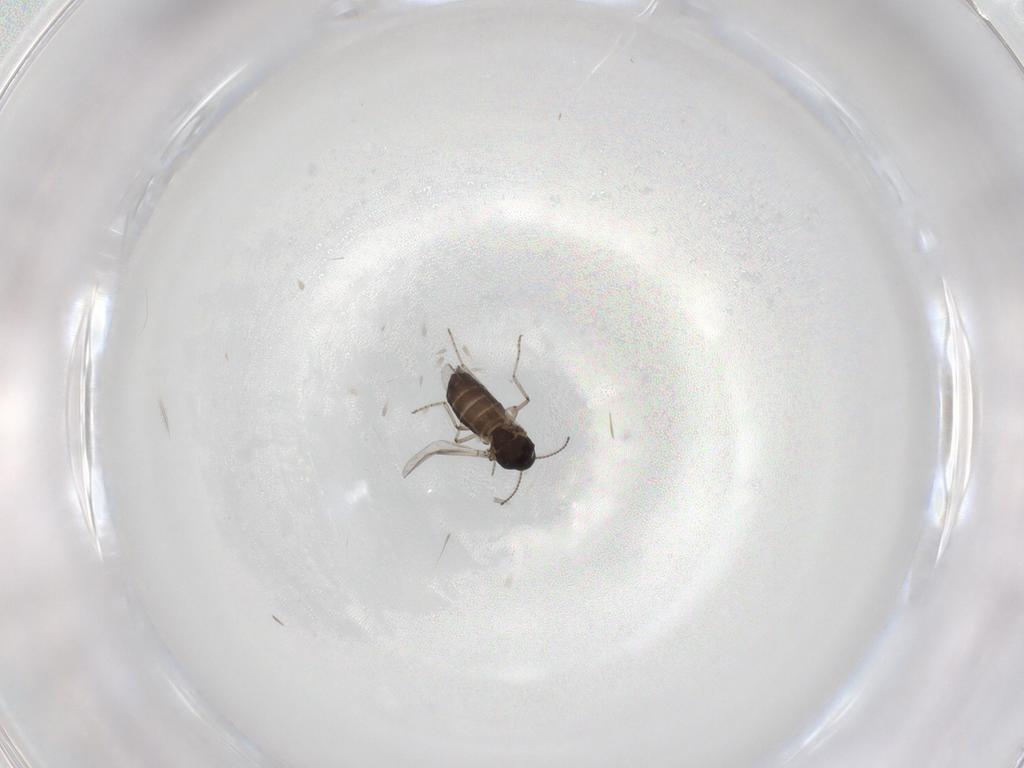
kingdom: Animalia
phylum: Arthropoda
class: Insecta
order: Diptera
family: Ceratopogonidae
